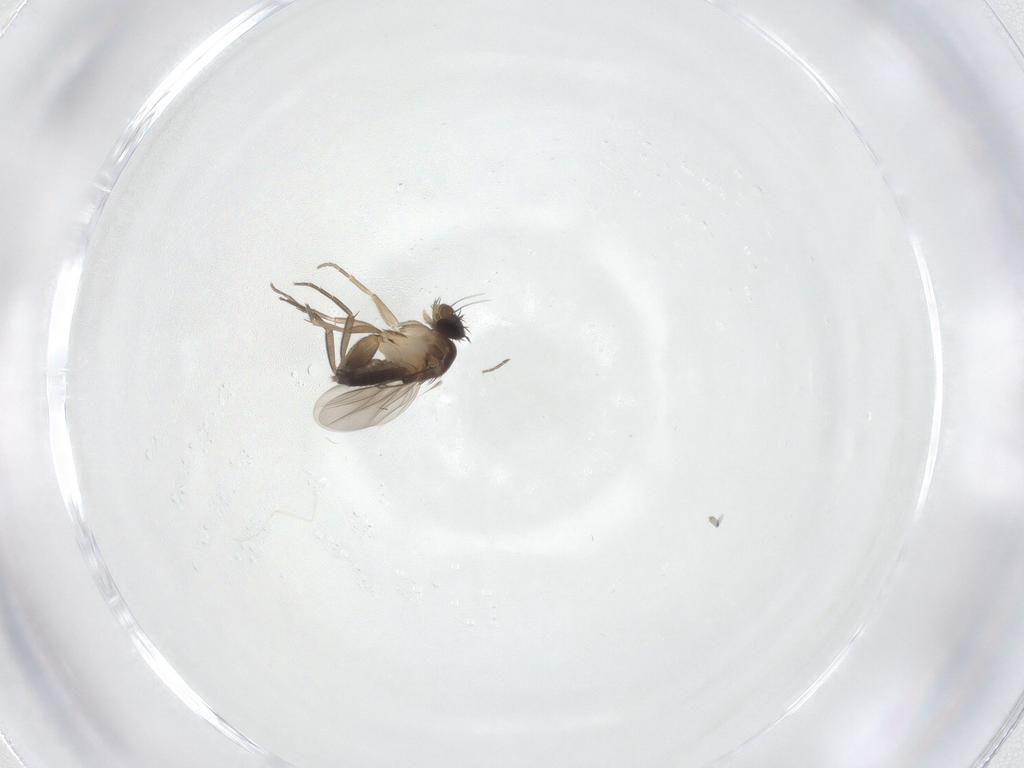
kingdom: Animalia
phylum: Arthropoda
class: Insecta
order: Diptera
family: Phoridae
